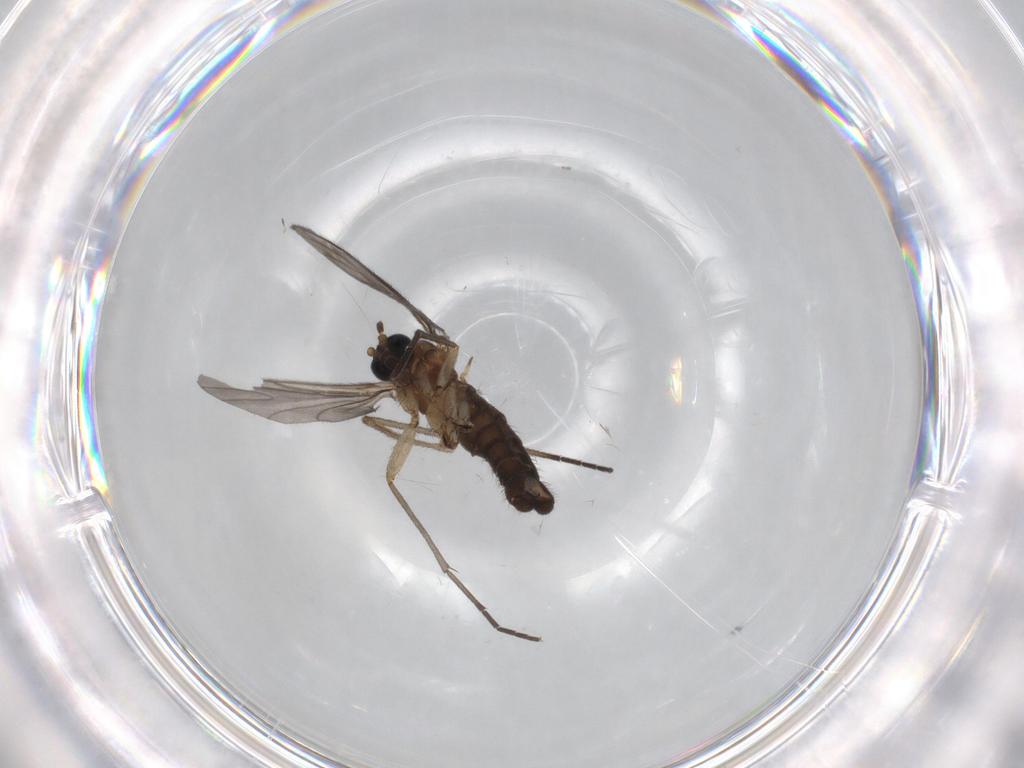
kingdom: Animalia
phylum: Arthropoda
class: Insecta
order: Diptera
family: Sciaridae
